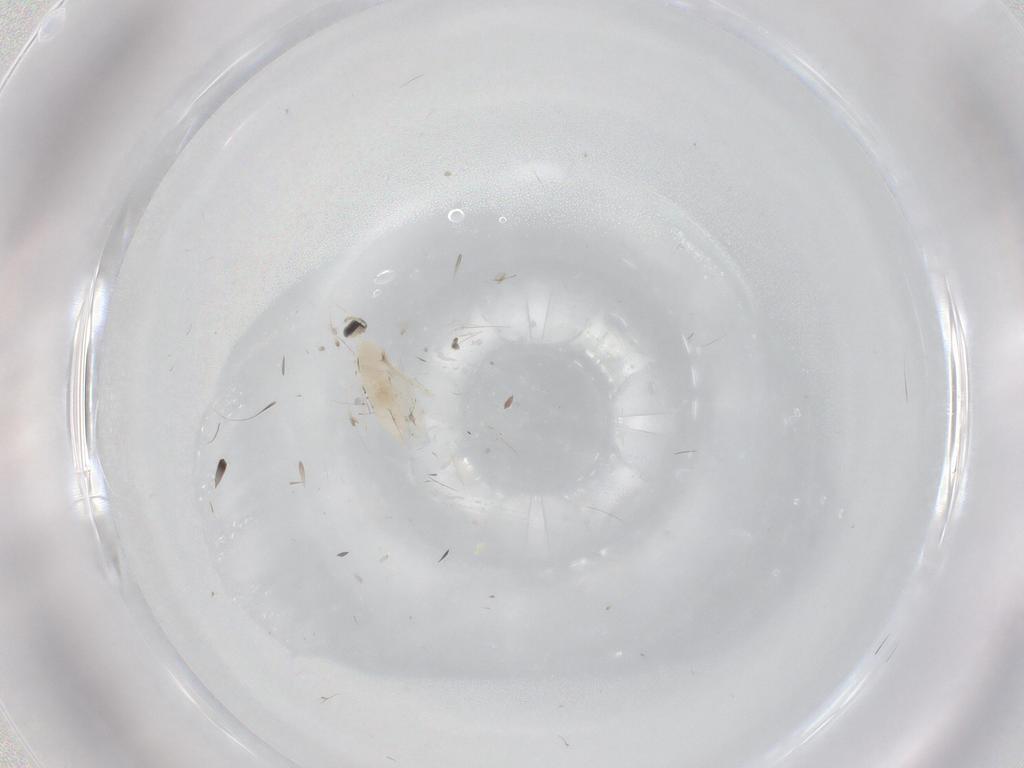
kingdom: Animalia
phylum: Arthropoda
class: Insecta
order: Diptera
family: Cecidomyiidae
